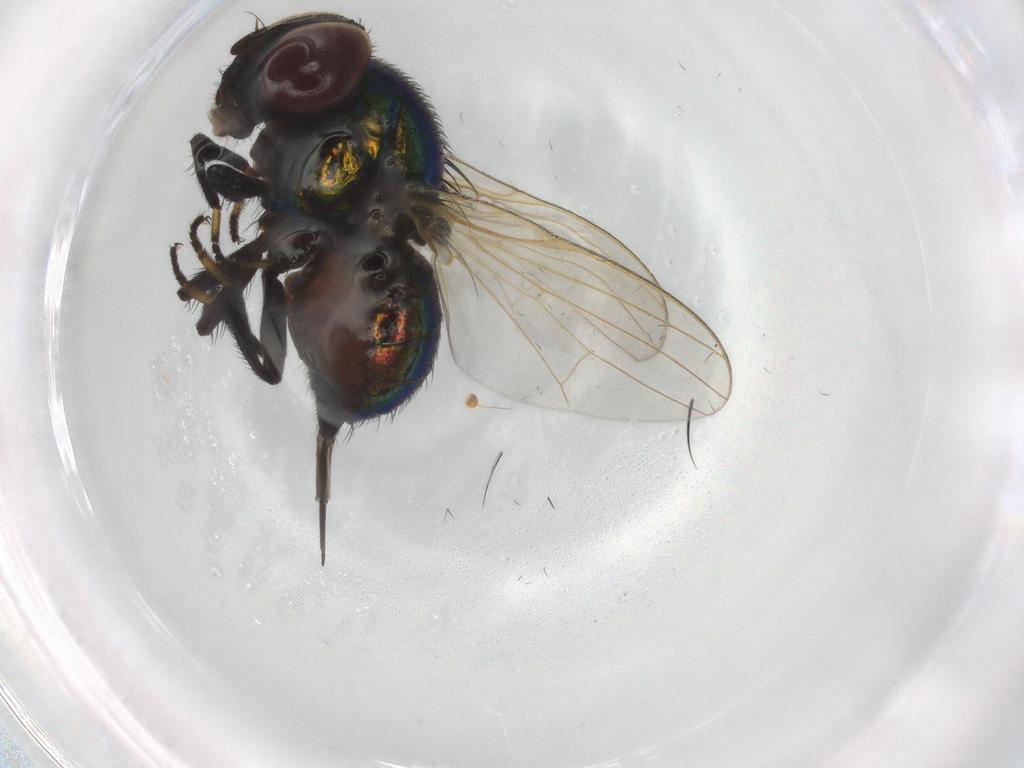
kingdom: Animalia
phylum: Arthropoda
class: Insecta
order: Diptera
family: Lonchaeidae
